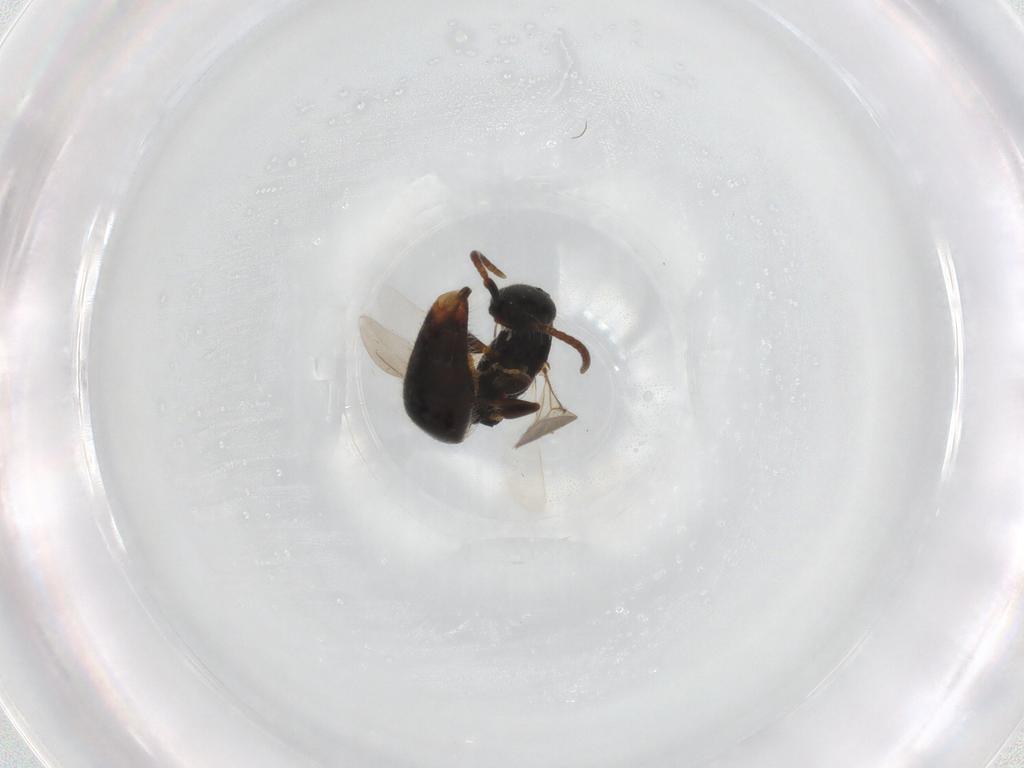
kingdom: Animalia
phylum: Arthropoda
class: Insecta
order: Hymenoptera
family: Bethylidae
